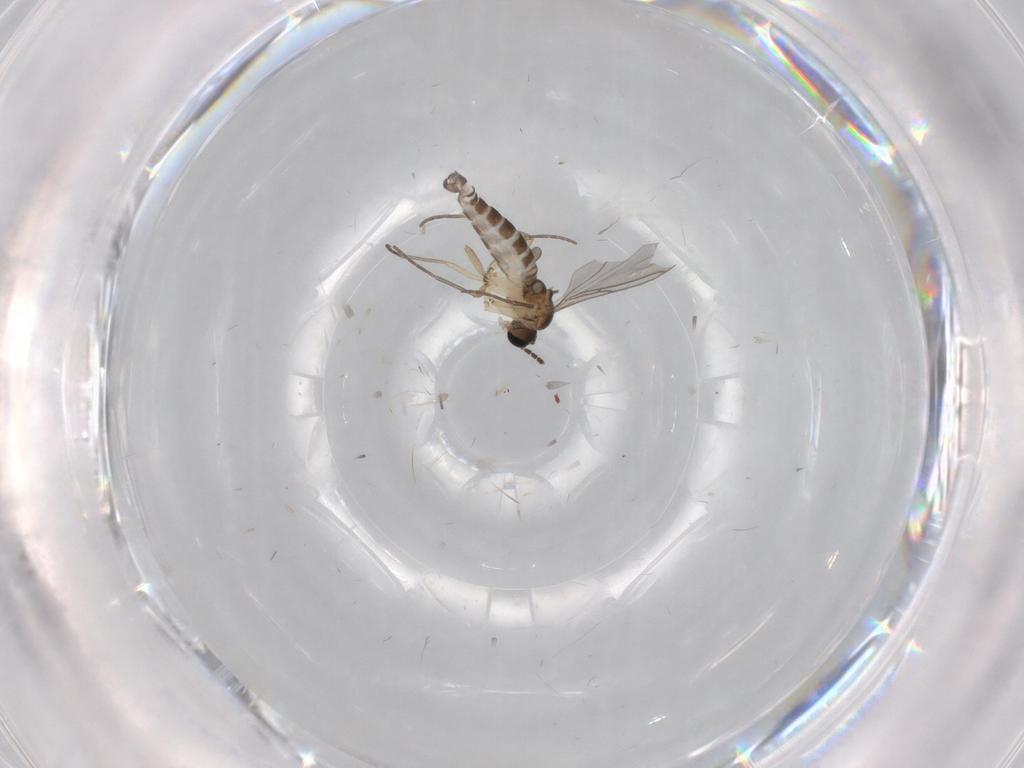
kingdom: Animalia
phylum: Arthropoda
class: Insecta
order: Diptera
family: Sciaridae
